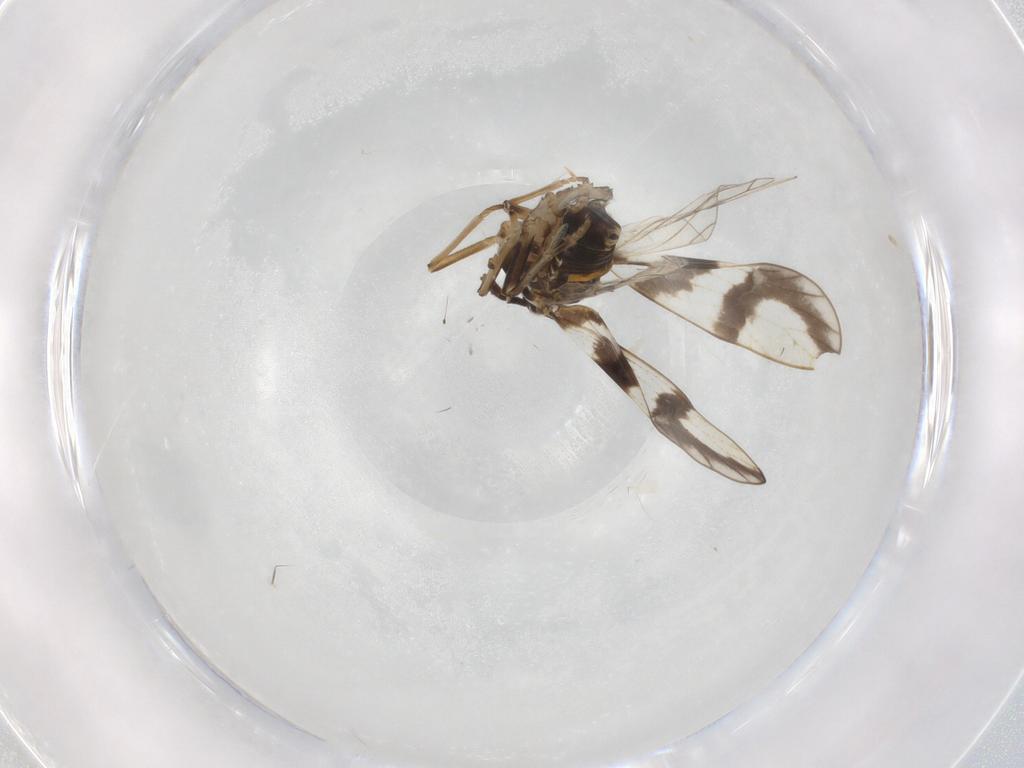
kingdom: Animalia
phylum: Arthropoda
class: Insecta
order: Hemiptera
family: Delphacidae
